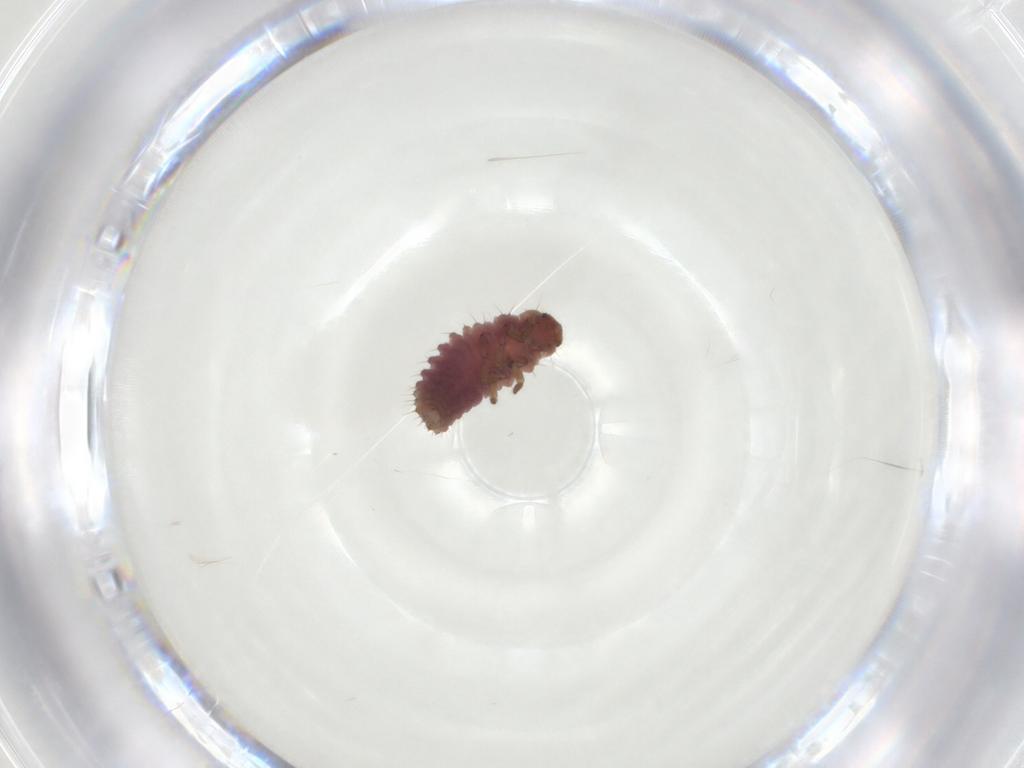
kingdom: Animalia
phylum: Arthropoda
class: Insecta
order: Coleoptera
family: Coccinellidae
